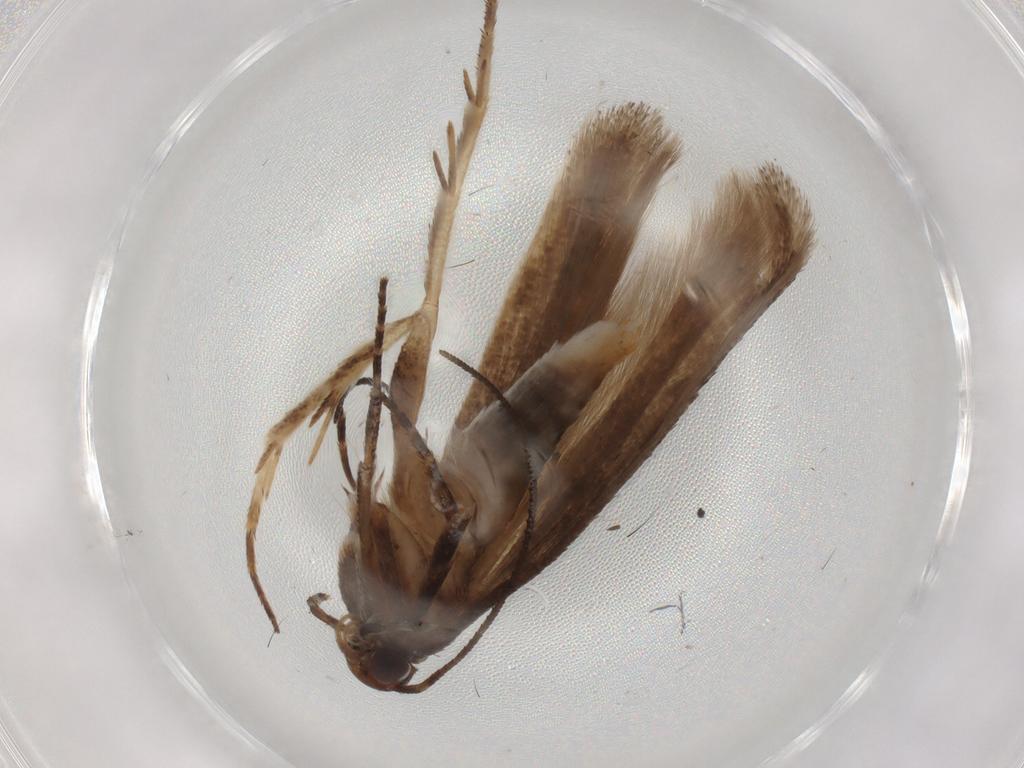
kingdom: Animalia
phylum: Arthropoda
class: Insecta
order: Lepidoptera
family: Gelechiidae
